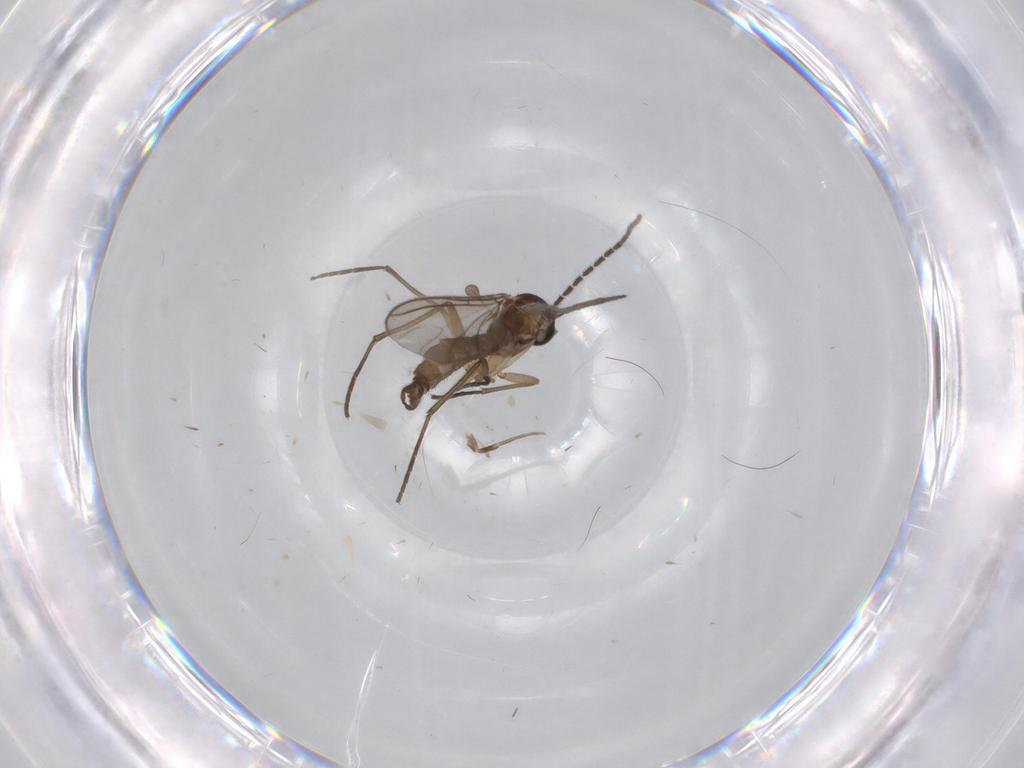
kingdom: Animalia
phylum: Arthropoda
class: Insecta
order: Diptera
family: Sciaridae
